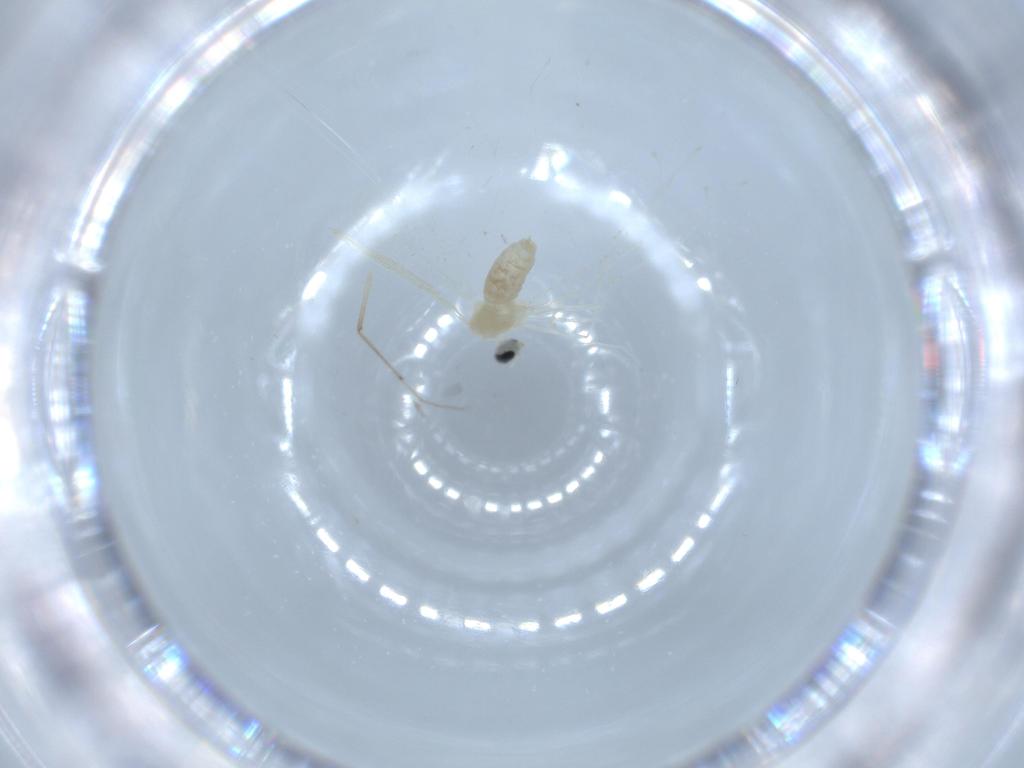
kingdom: Animalia
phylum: Arthropoda
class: Insecta
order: Diptera
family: Cecidomyiidae
